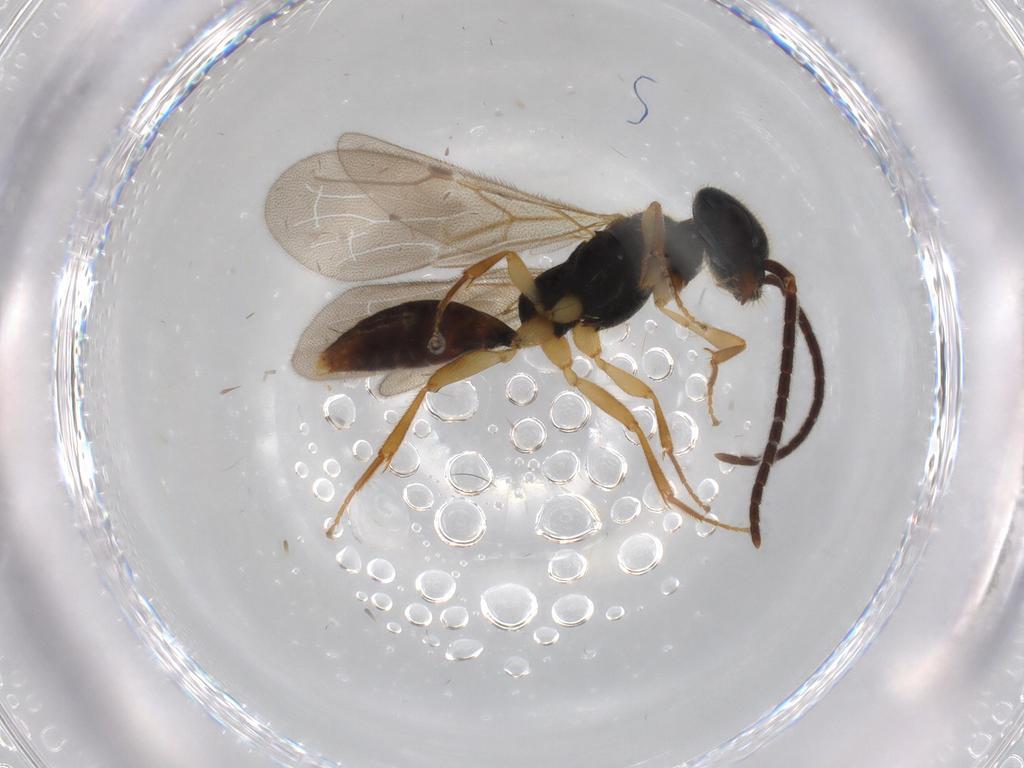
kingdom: Animalia
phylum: Arthropoda
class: Insecta
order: Hymenoptera
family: Bethylidae
